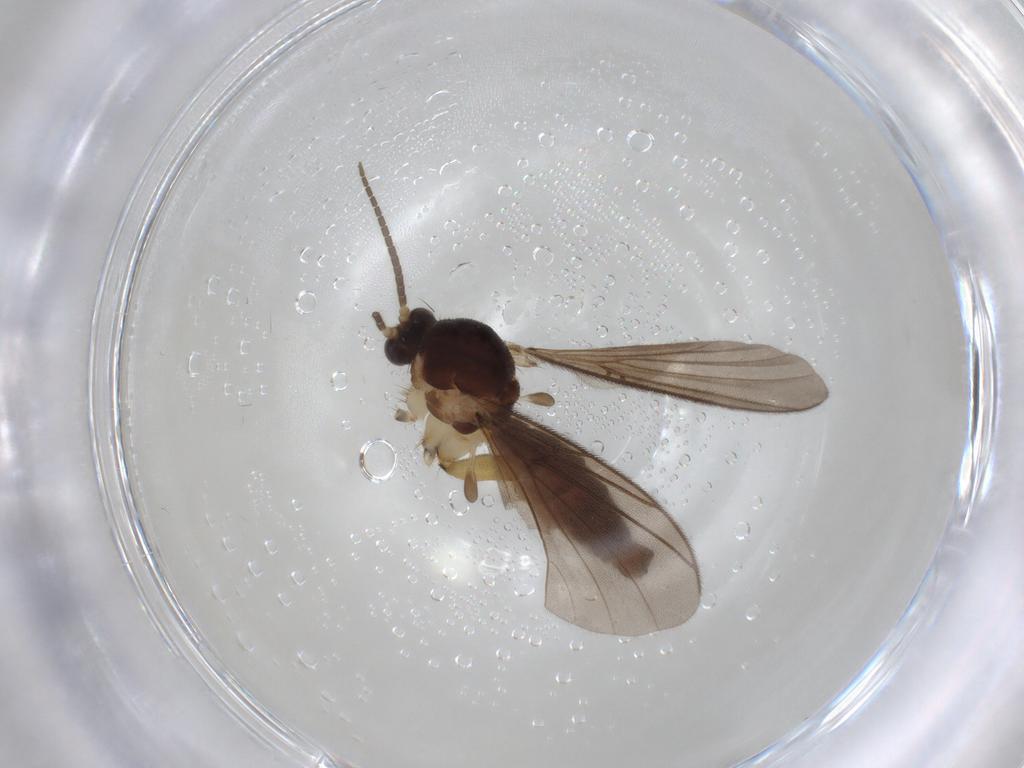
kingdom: Animalia
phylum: Arthropoda
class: Insecta
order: Diptera
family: Mycetophilidae
